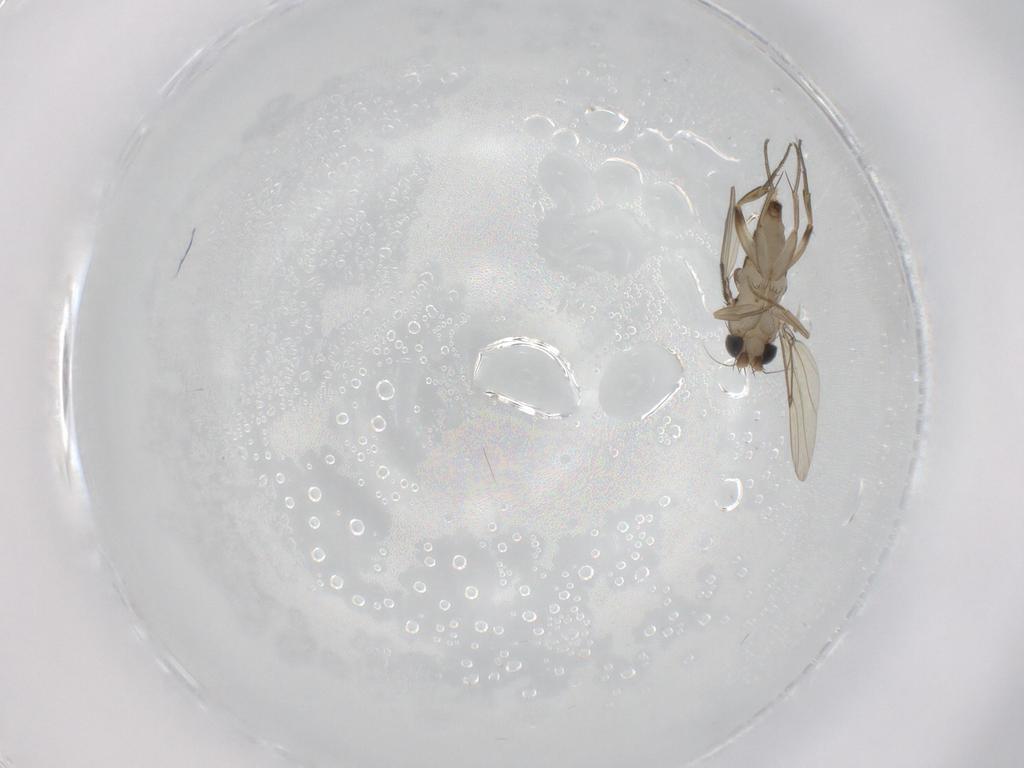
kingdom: Animalia
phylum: Arthropoda
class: Insecta
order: Diptera
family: Phoridae
